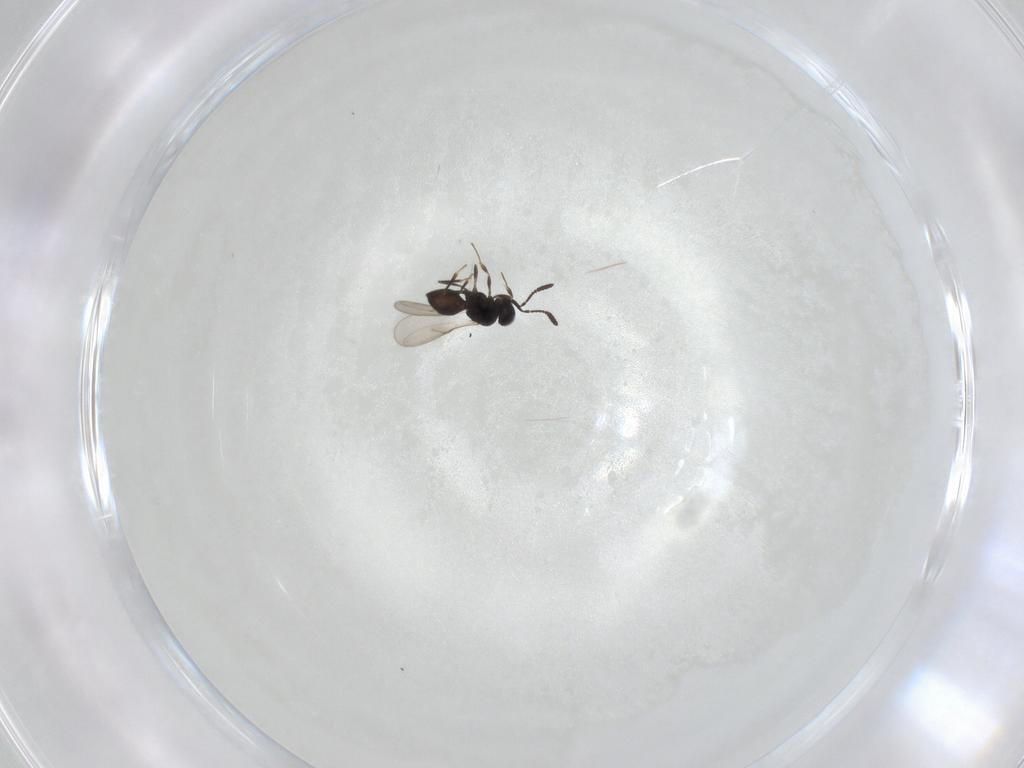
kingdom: Animalia
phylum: Arthropoda
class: Insecta
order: Hymenoptera
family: Scelionidae
